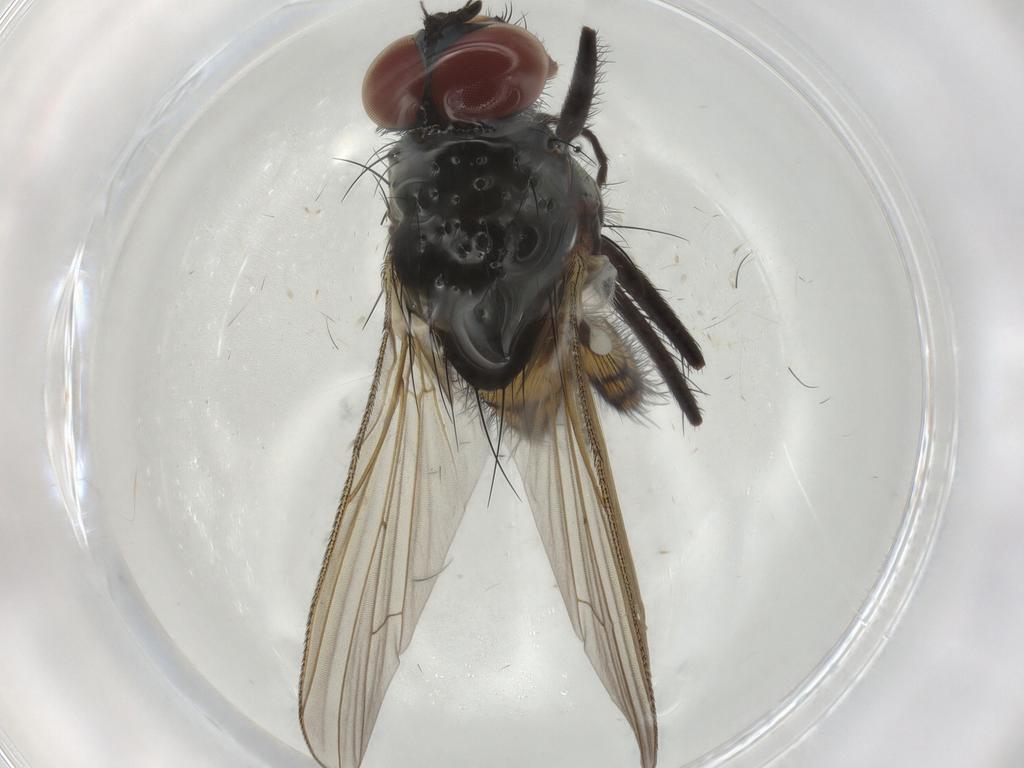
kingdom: Animalia
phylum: Arthropoda
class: Insecta
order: Diptera
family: Anthomyiidae
